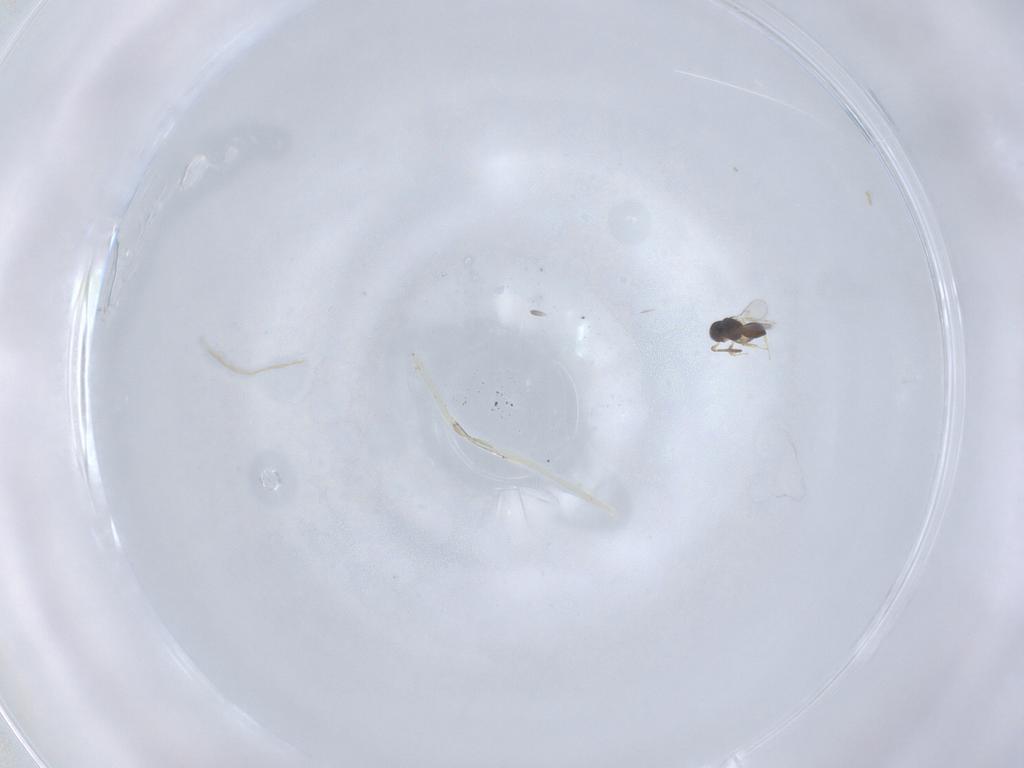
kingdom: Animalia
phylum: Arthropoda
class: Insecta
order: Hymenoptera
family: Scelionidae
